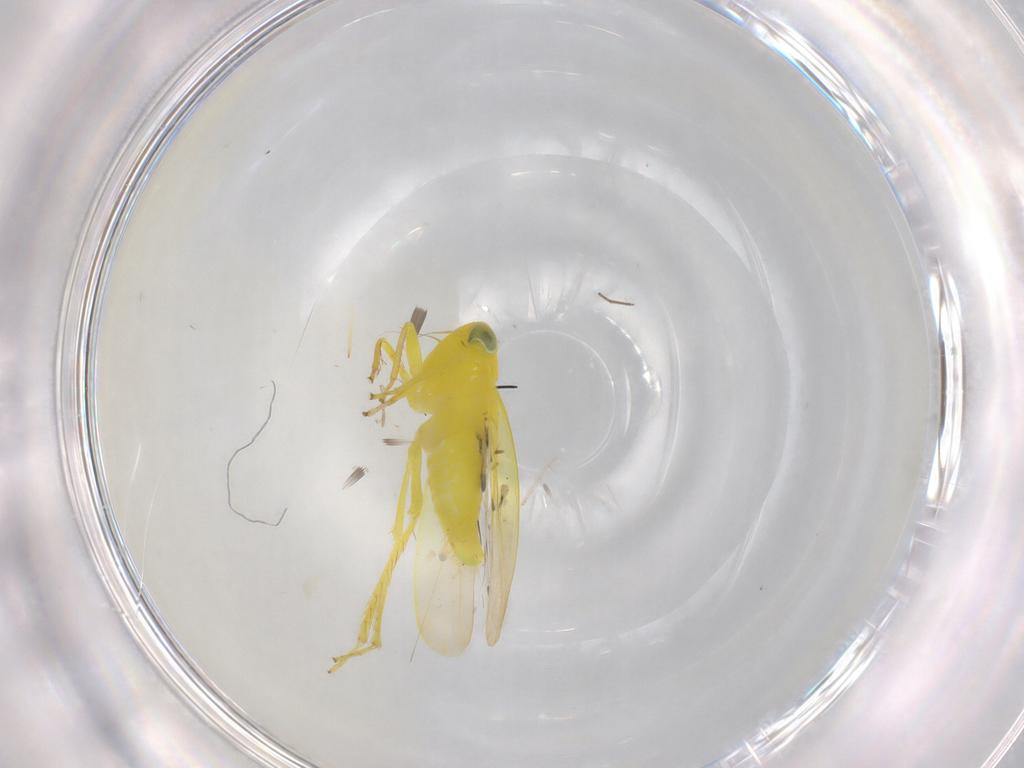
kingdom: Animalia
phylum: Arthropoda
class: Insecta
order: Hemiptera
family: Cicadellidae
